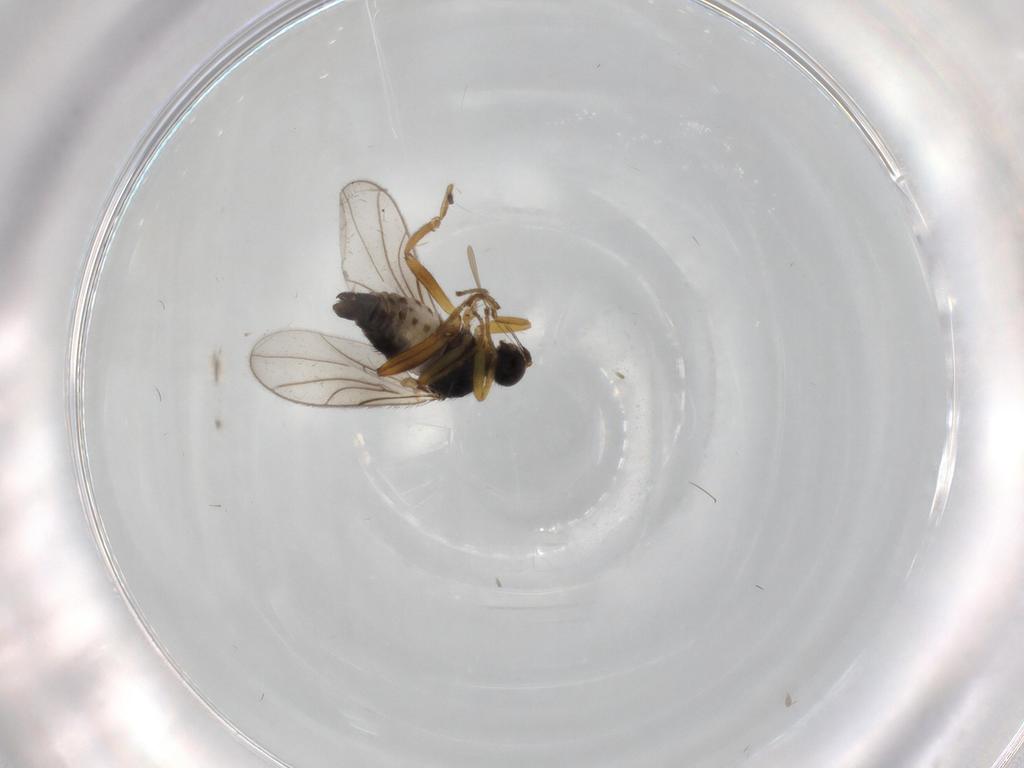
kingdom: Animalia
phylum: Arthropoda
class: Insecta
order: Diptera
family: Hybotidae
